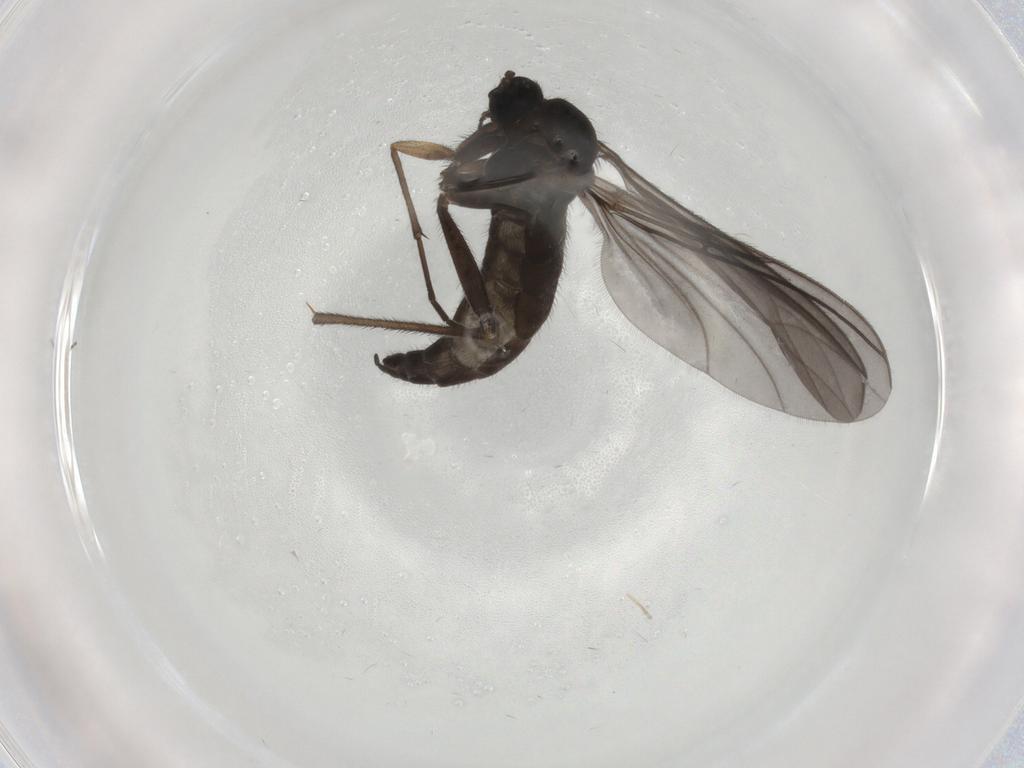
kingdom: Animalia
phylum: Arthropoda
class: Insecta
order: Diptera
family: Sciaridae
